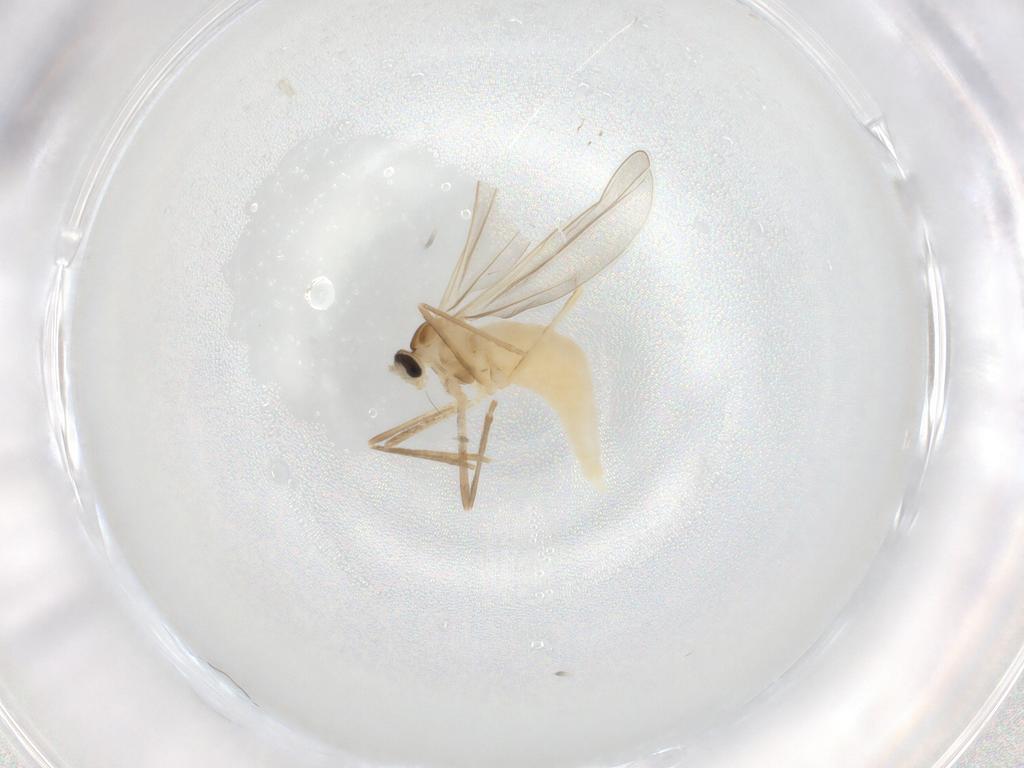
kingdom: Animalia
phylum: Arthropoda
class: Insecta
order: Diptera
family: Cecidomyiidae
